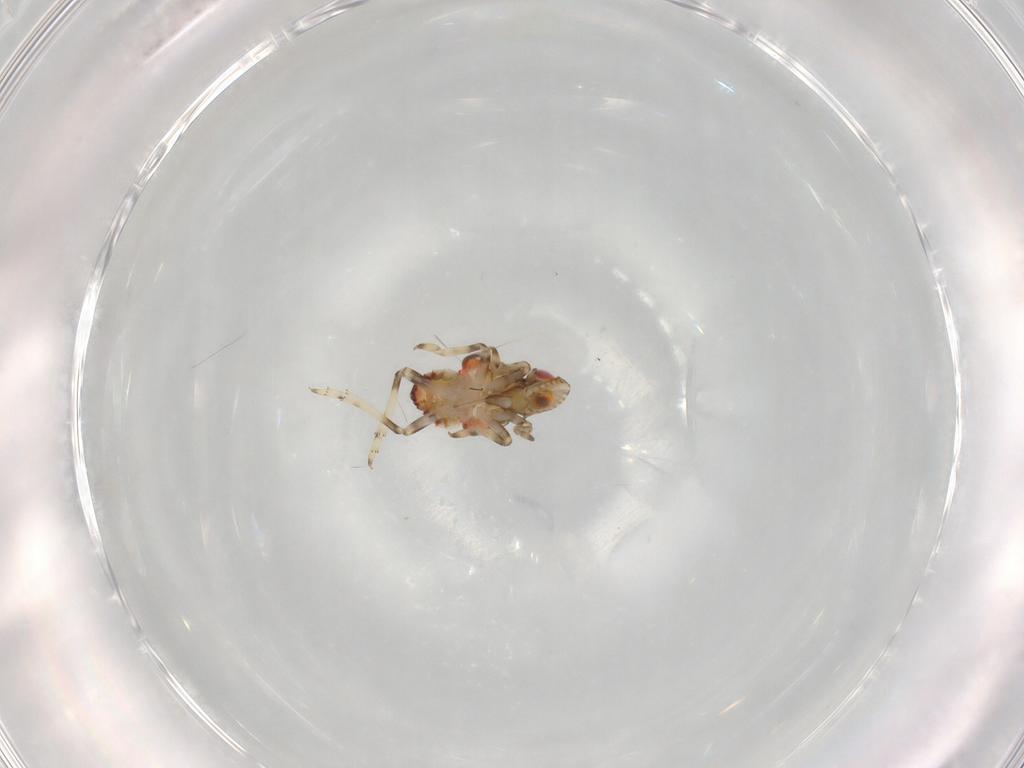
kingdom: Animalia
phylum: Arthropoda
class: Insecta
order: Hemiptera
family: Tropiduchidae
